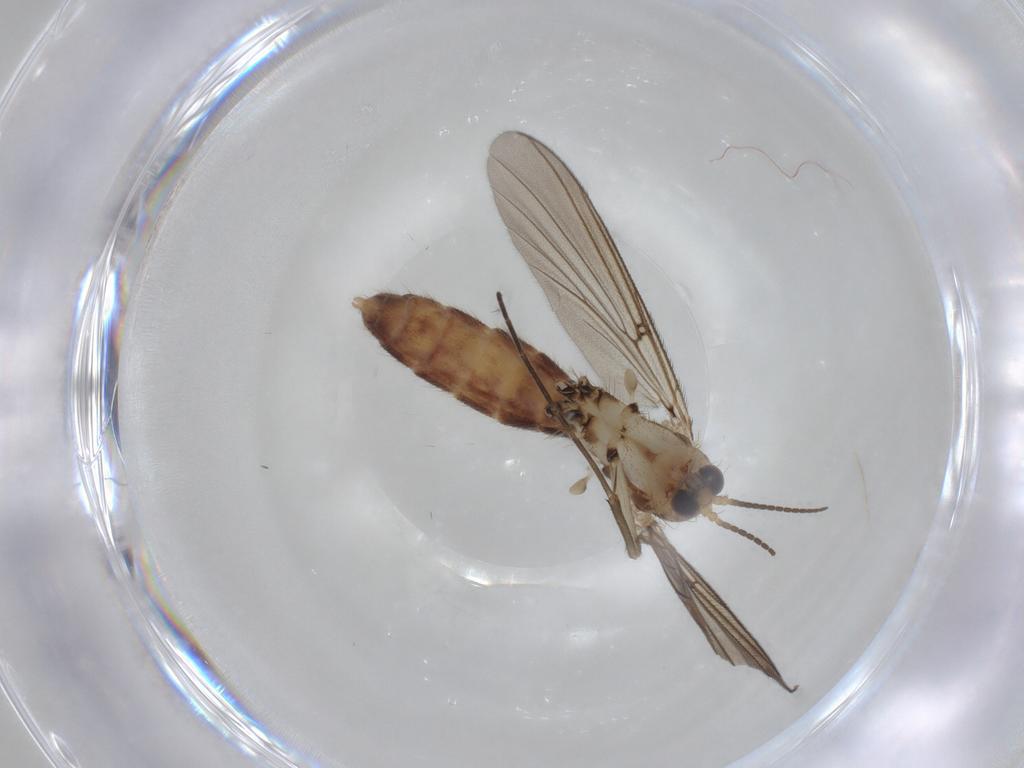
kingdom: Animalia
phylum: Arthropoda
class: Insecta
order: Diptera
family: Mycetophilidae
